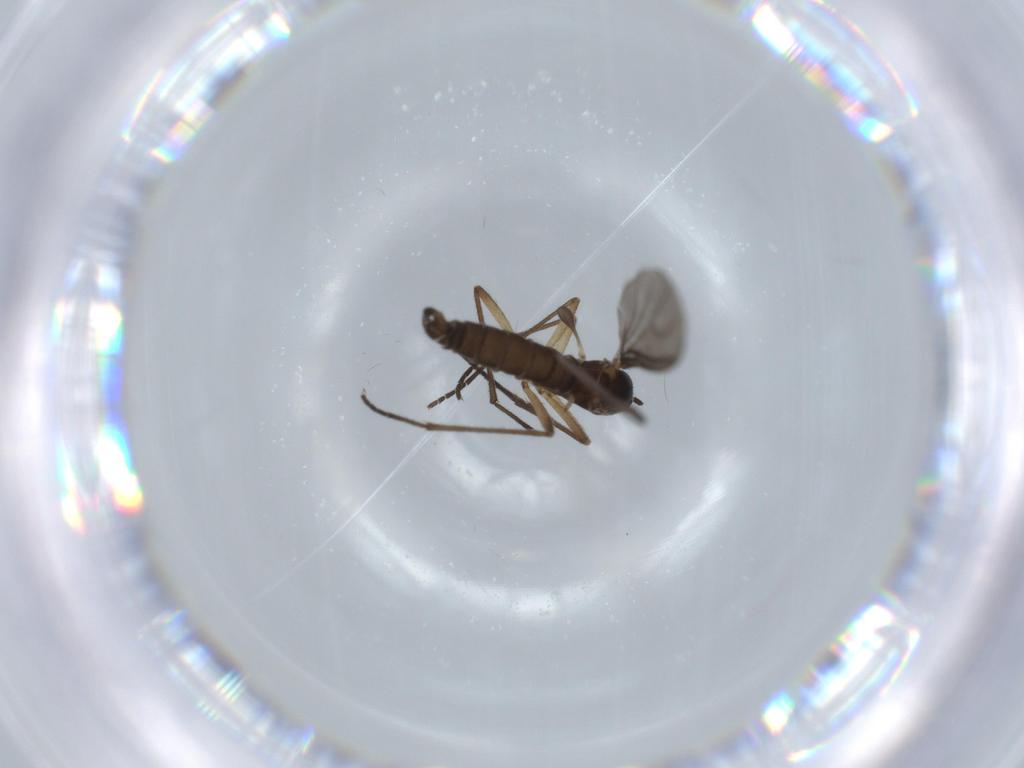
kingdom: Animalia
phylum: Arthropoda
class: Insecta
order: Diptera
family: Sciaridae
